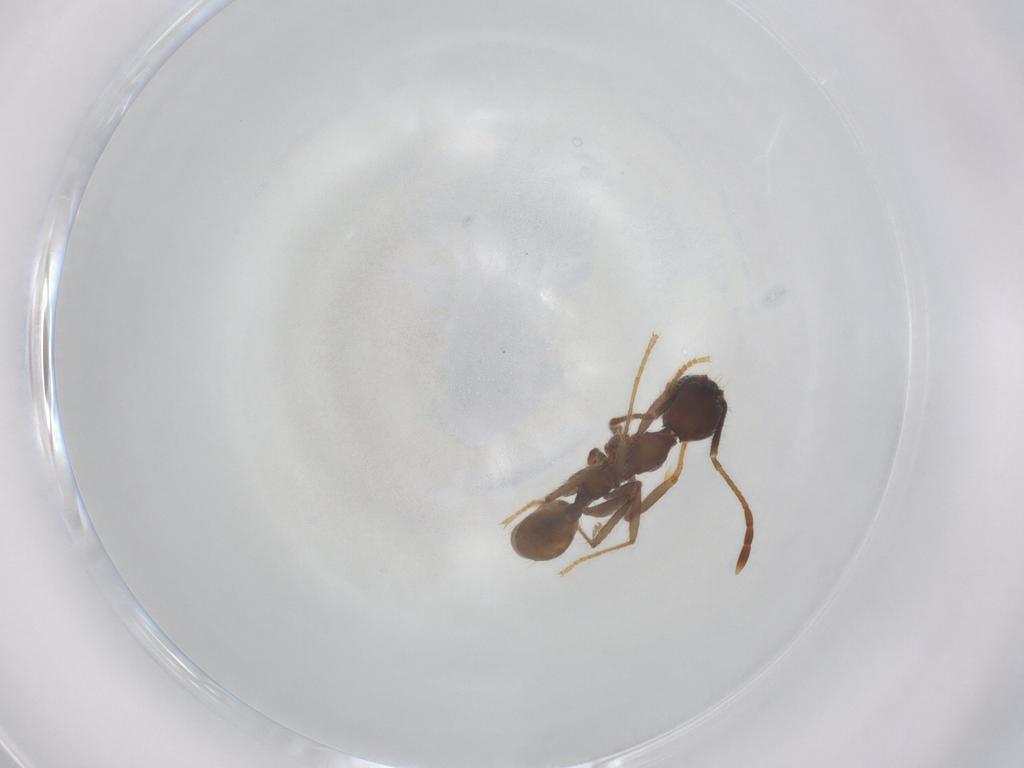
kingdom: Animalia
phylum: Arthropoda
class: Insecta
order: Hymenoptera
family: Formicidae
